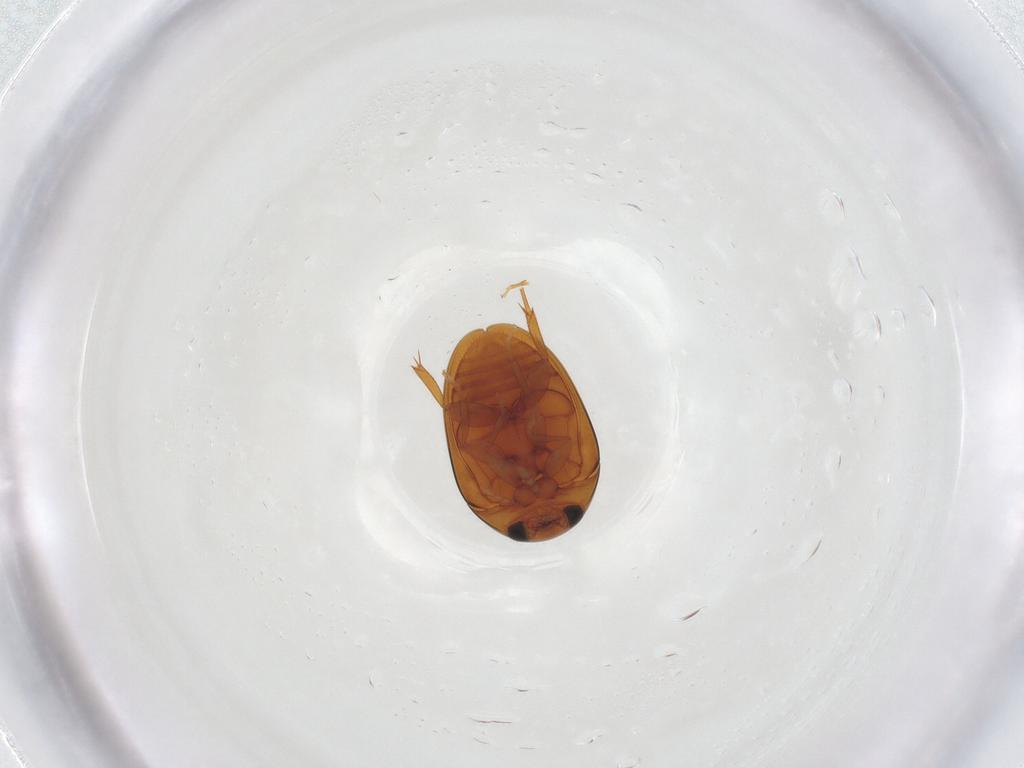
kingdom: Animalia
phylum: Arthropoda
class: Insecta
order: Coleoptera
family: Phalacridae
